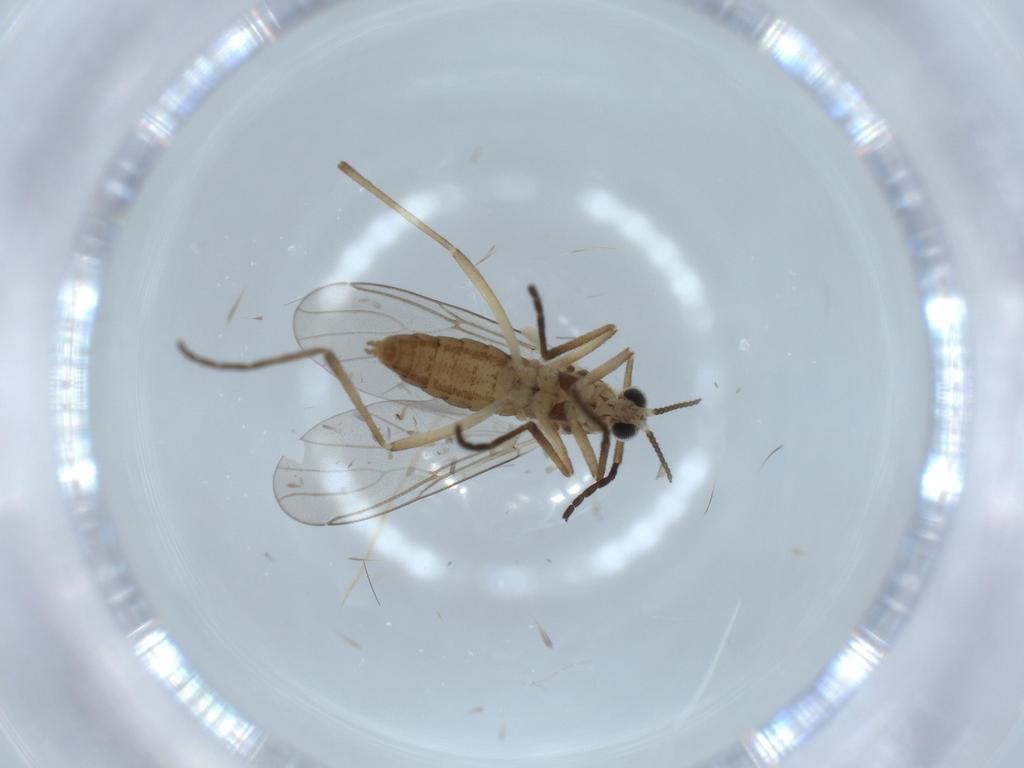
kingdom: Animalia
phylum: Arthropoda
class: Insecta
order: Diptera
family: Cecidomyiidae
